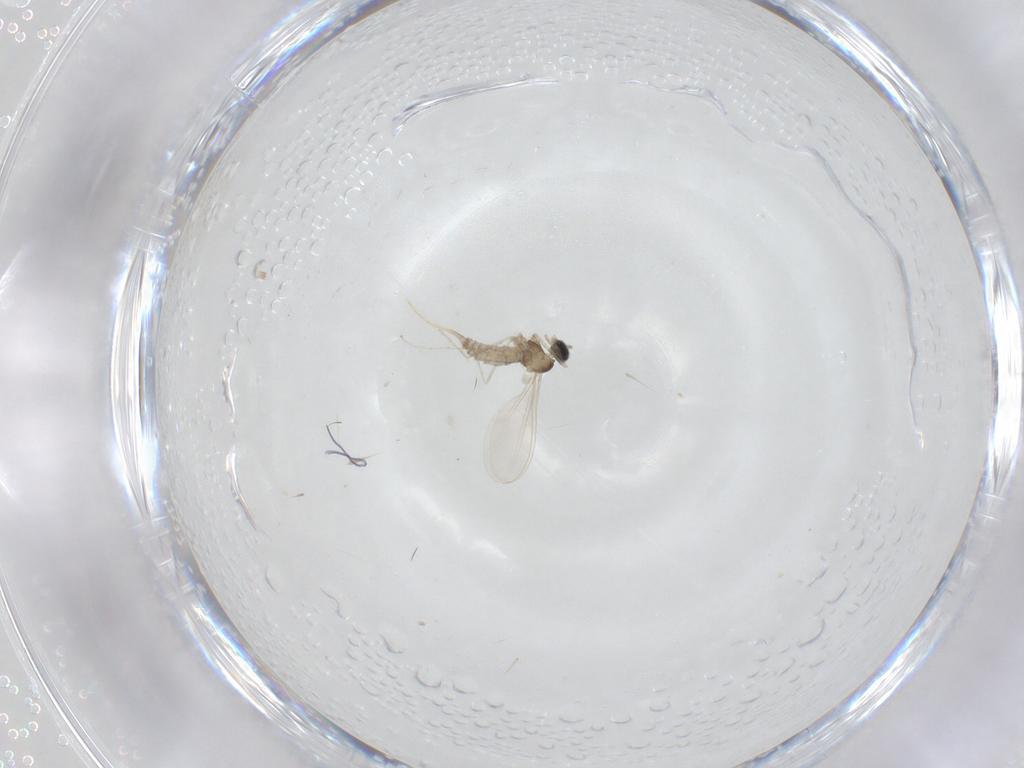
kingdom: Animalia
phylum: Arthropoda
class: Insecta
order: Diptera
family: Cecidomyiidae
